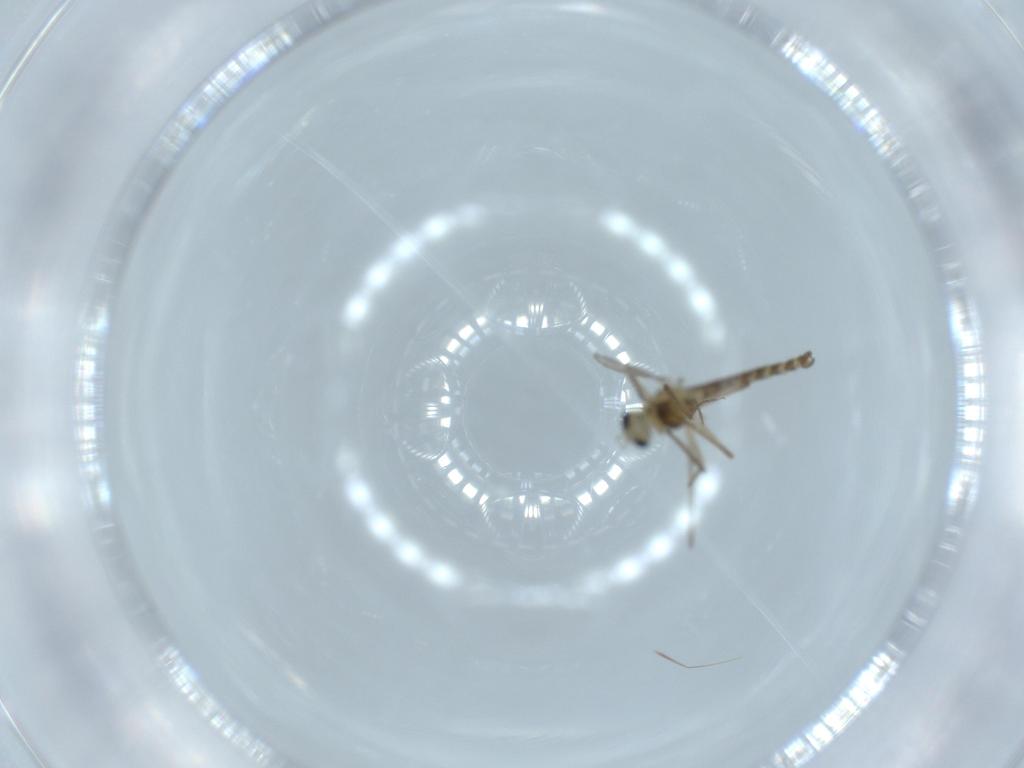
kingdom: Animalia
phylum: Arthropoda
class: Insecta
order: Diptera
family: Chironomidae
